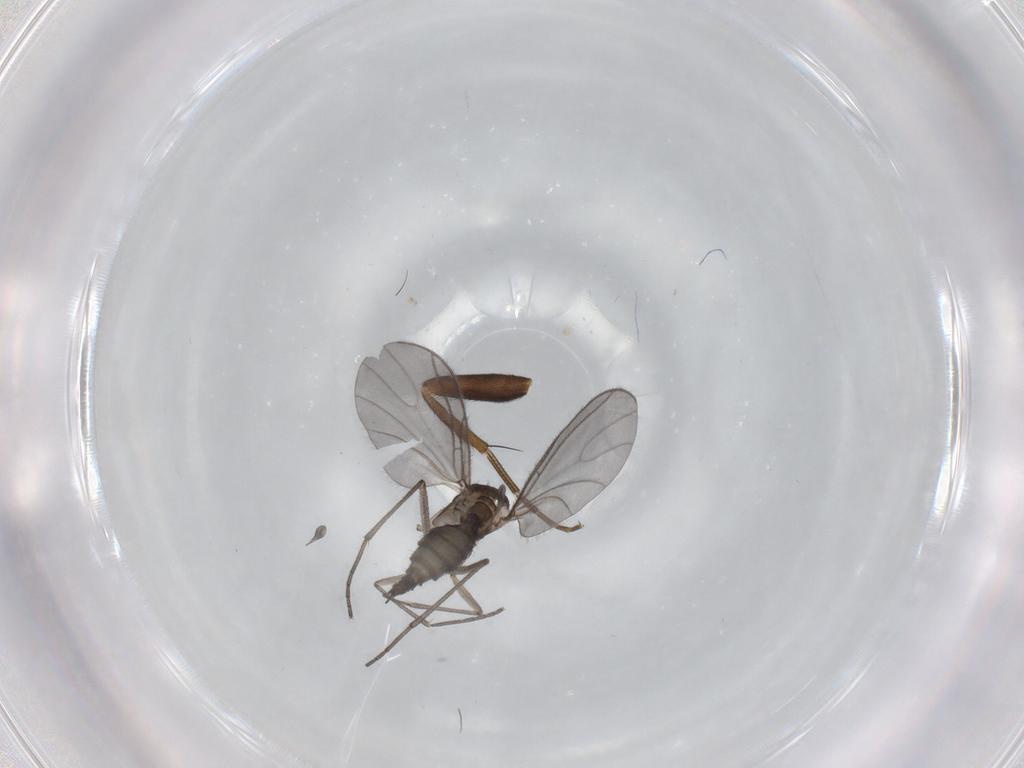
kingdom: Animalia
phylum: Arthropoda
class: Insecta
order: Diptera
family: Sciaridae
